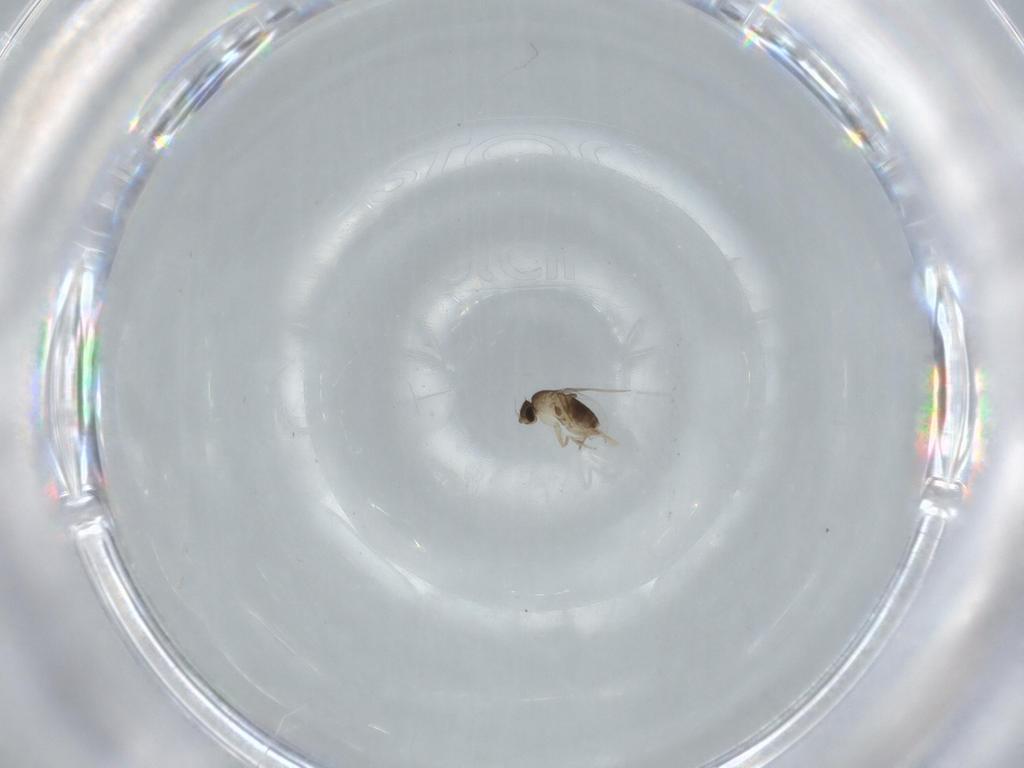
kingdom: Animalia
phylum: Arthropoda
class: Insecta
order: Diptera
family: Phoridae
